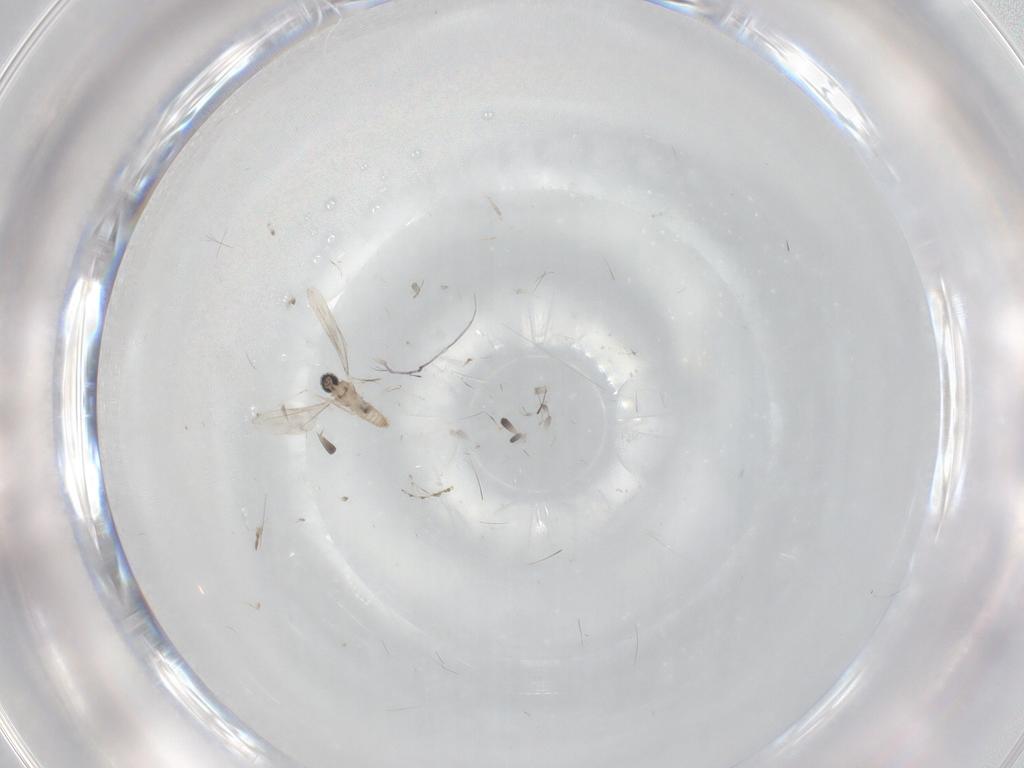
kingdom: Animalia
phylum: Arthropoda
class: Insecta
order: Diptera
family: Cecidomyiidae
